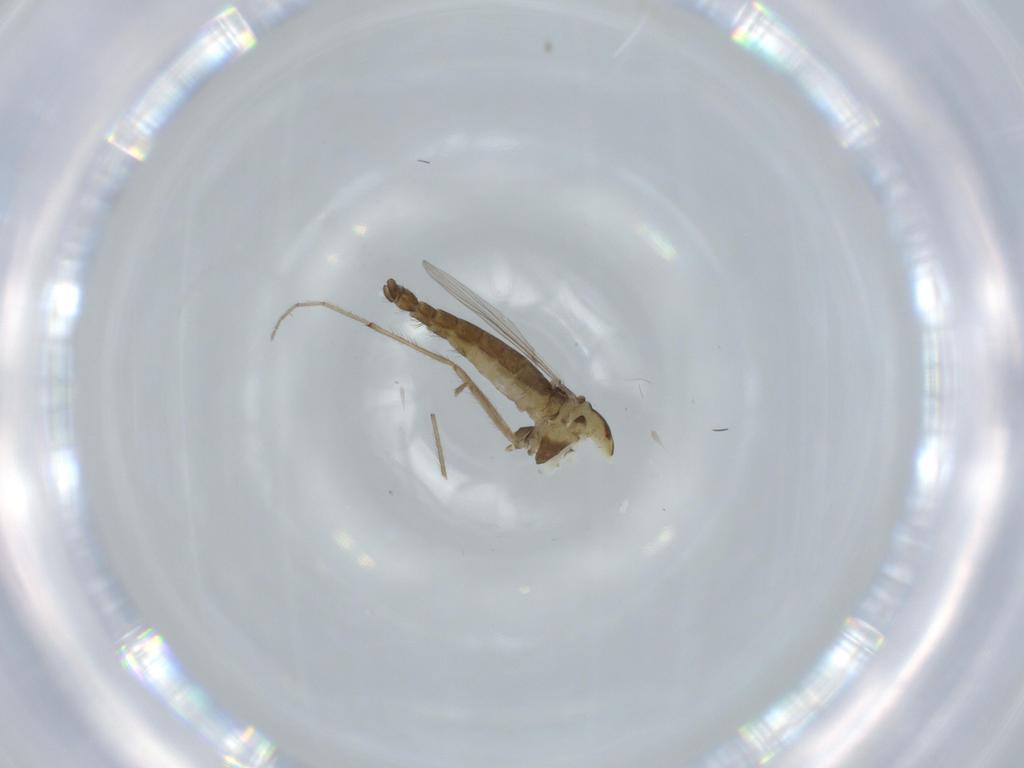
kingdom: Animalia
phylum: Arthropoda
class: Insecta
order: Diptera
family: Chironomidae
